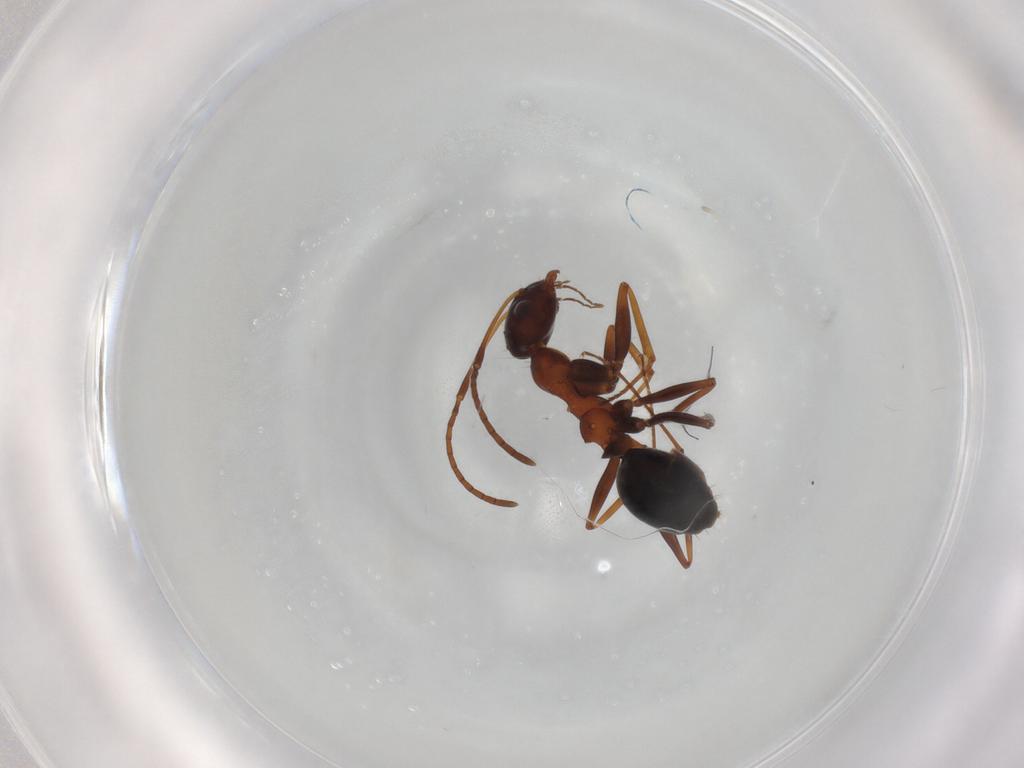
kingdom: Animalia
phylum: Arthropoda
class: Insecta
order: Hymenoptera
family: Formicidae
